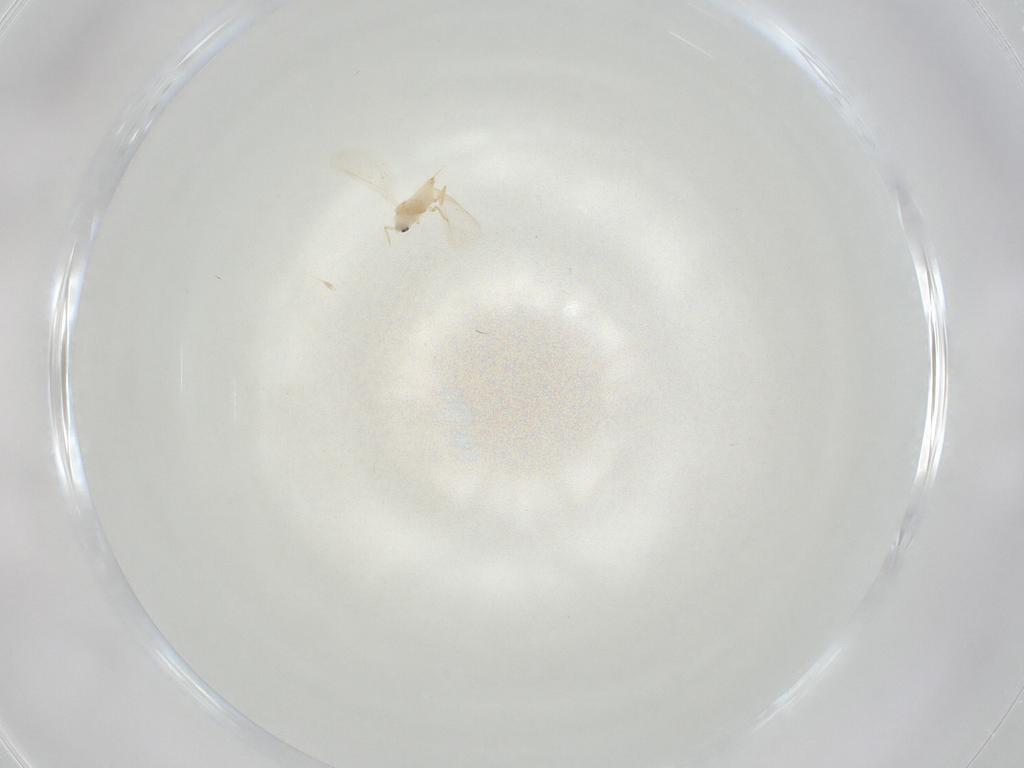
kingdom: Animalia
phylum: Arthropoda
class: Insecta
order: Hemiptera
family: Coccoidea_incertae_sedis
